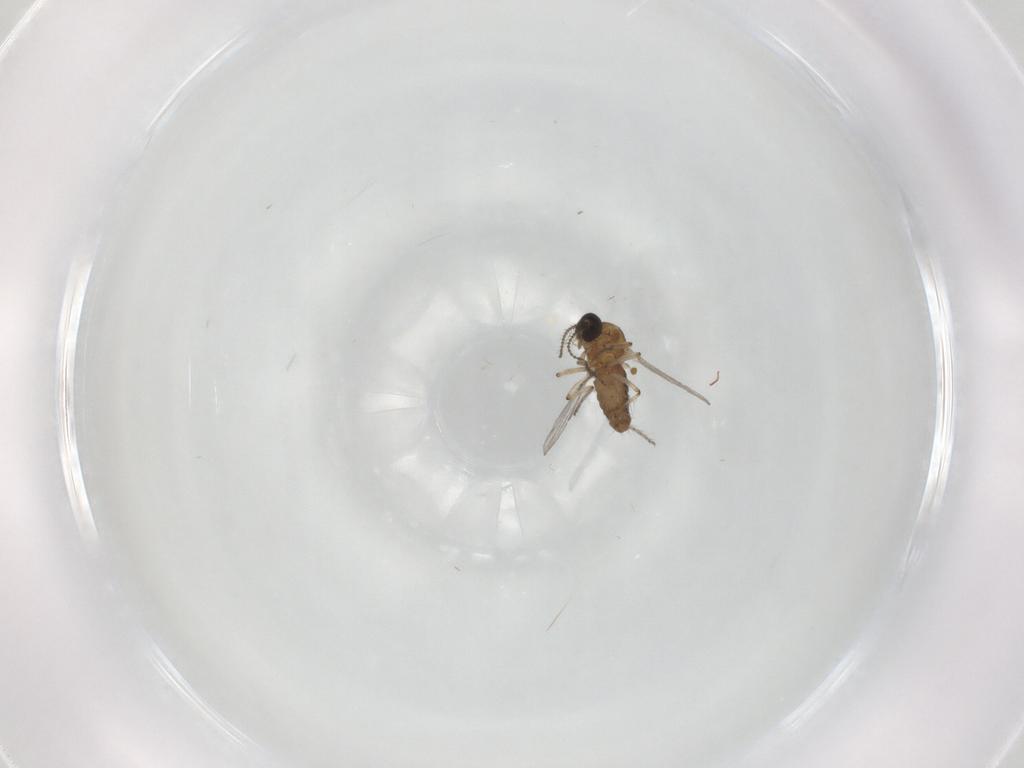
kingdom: Animalia
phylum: Arthropoda
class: Insecta
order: Diptera
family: Ceratopogonidae
